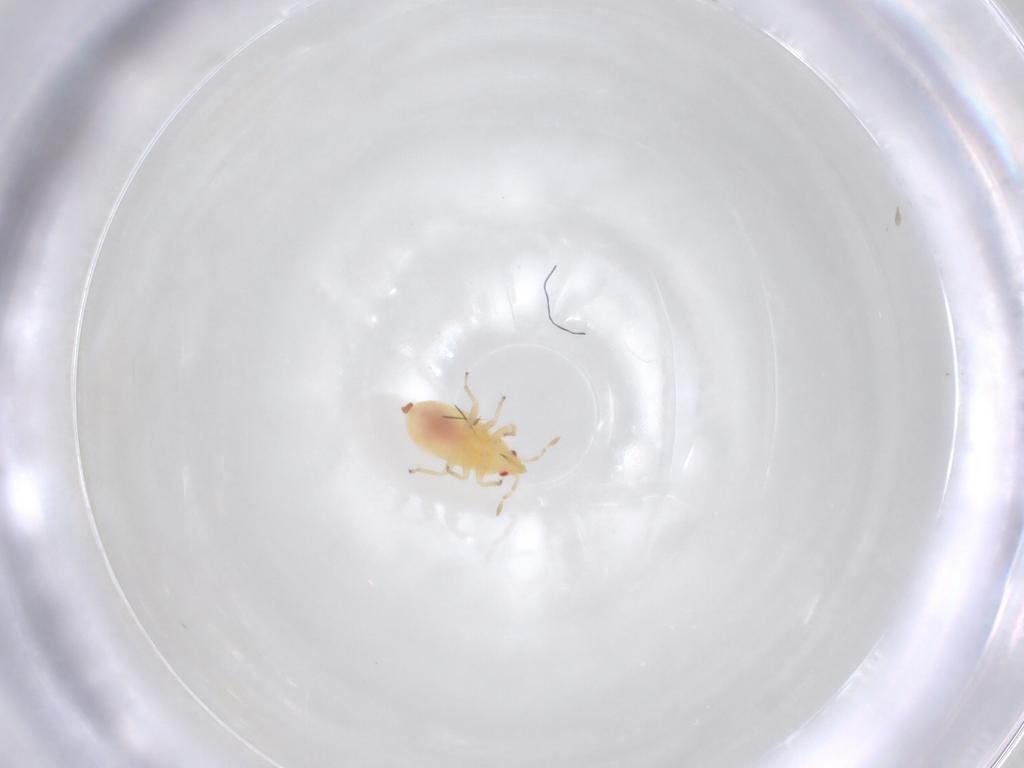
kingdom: Animalia
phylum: Arthropoda
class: Insecta
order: Hemiptera
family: Anthocoridae
